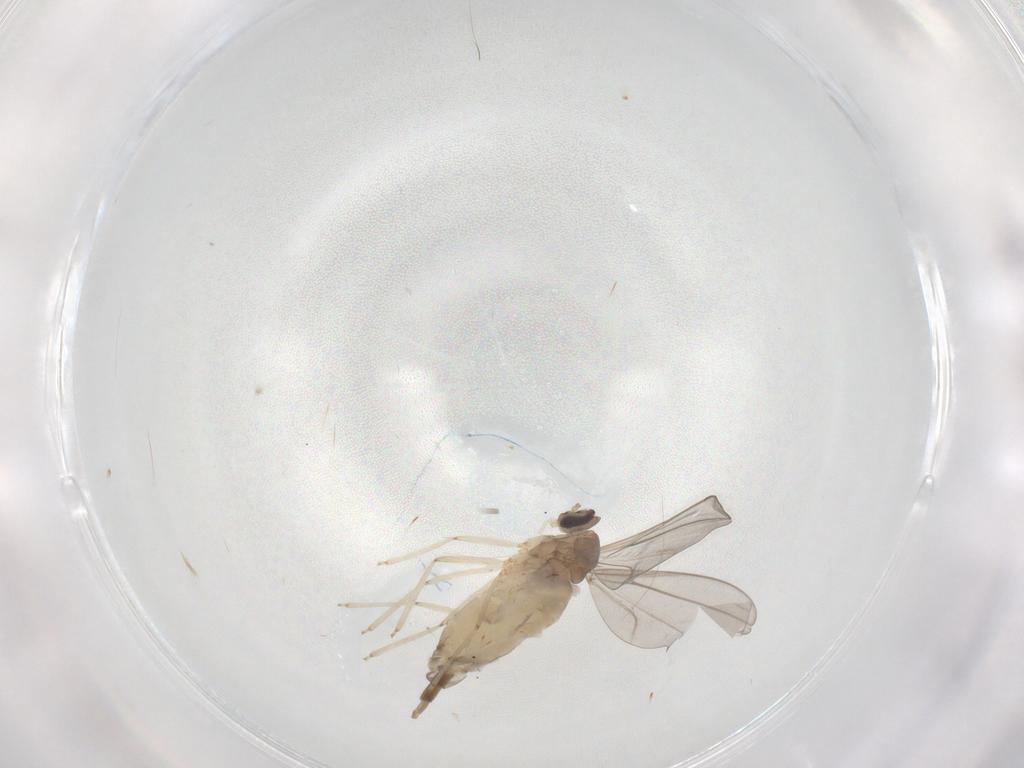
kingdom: Animalia
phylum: Arthropoda
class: Insecta
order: Diptera
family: Cecidomyiidae
